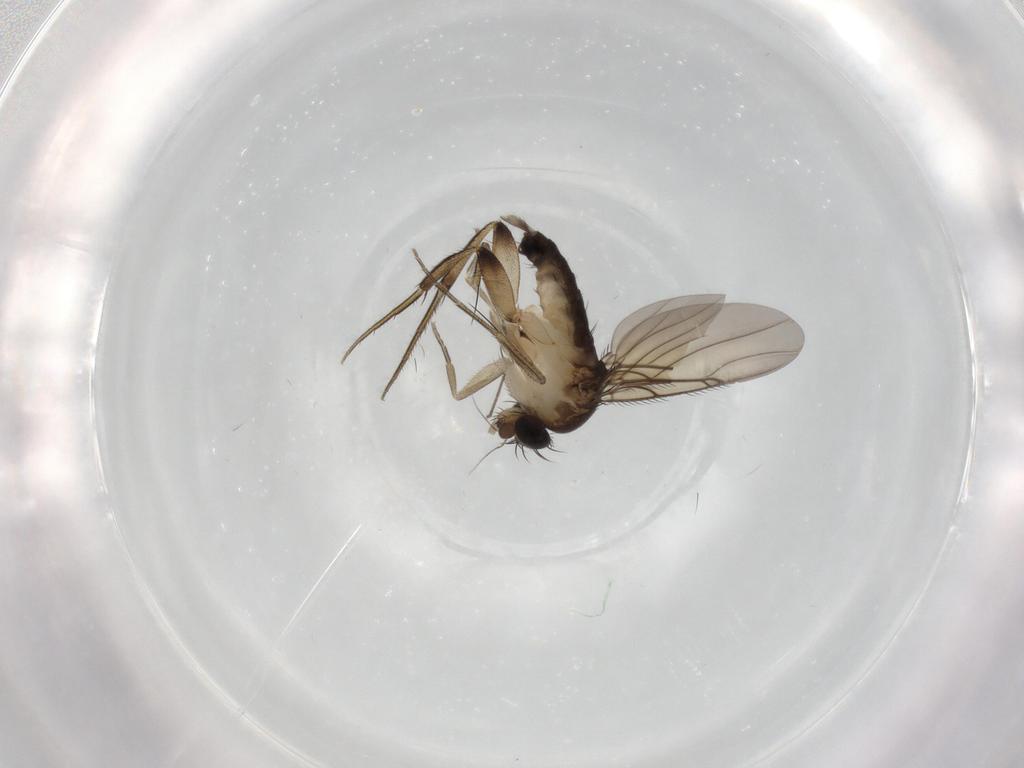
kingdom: Animalia
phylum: Arthropoda
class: Insecta
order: Diptera
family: Chironomidae
